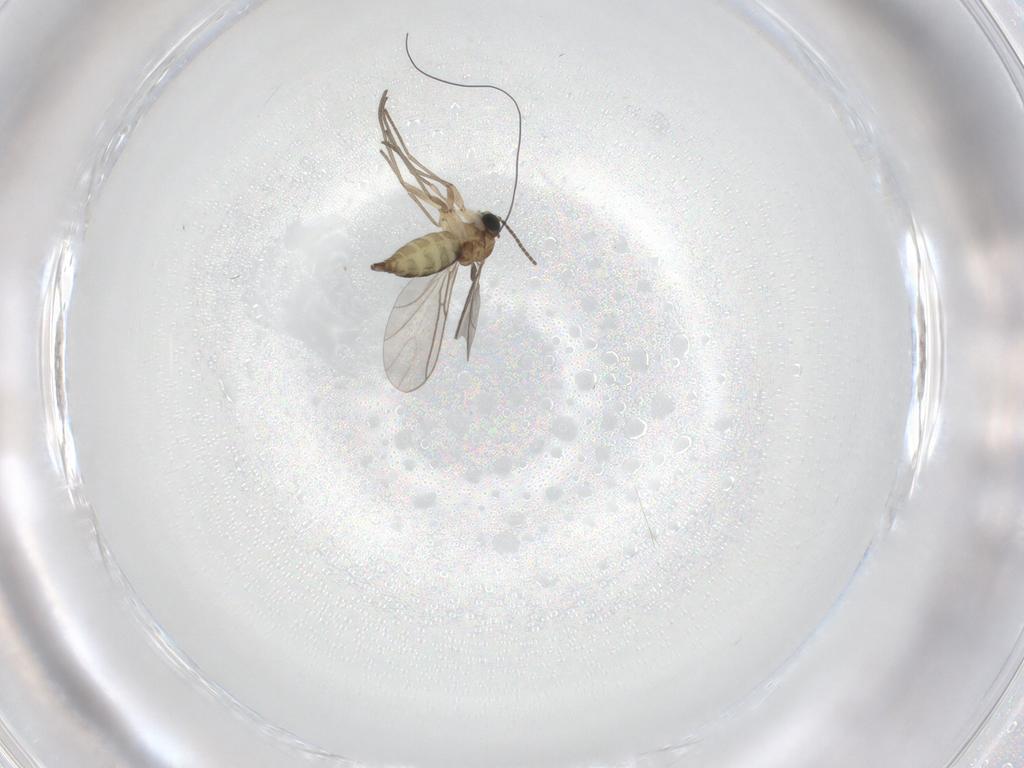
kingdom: Animalia
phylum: Arthropoda
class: Insecta
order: Diptera
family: Sciaridae
